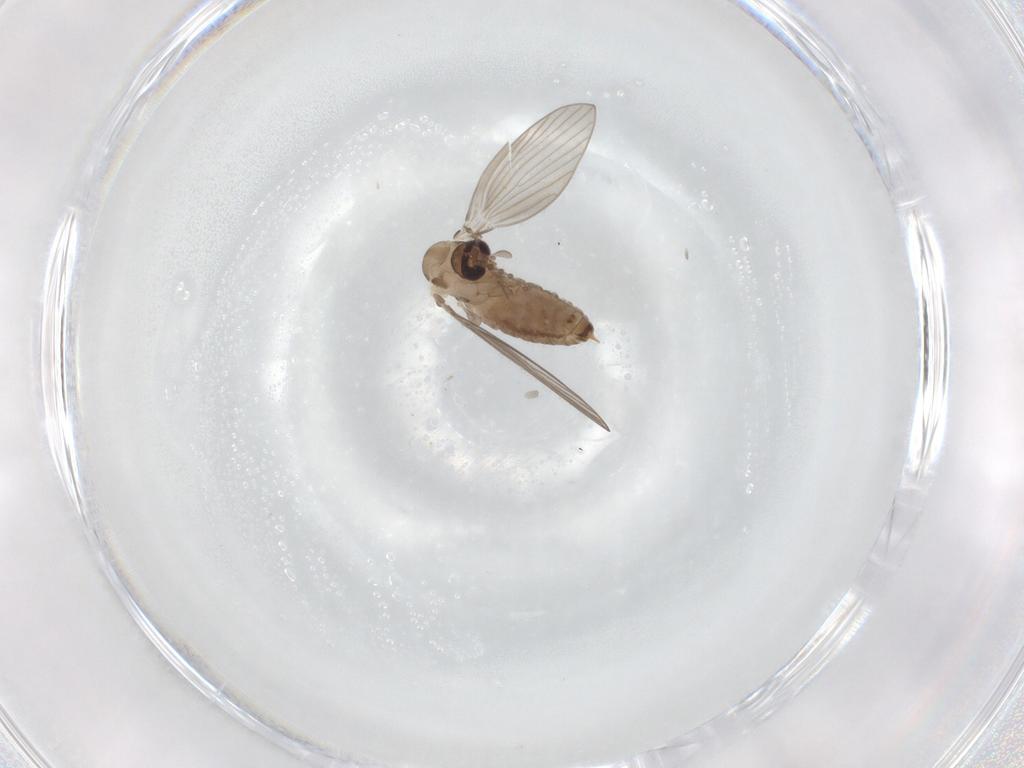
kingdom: Animalia
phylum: Arthropoda
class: Insecta
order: Diptera
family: Psychodidae
